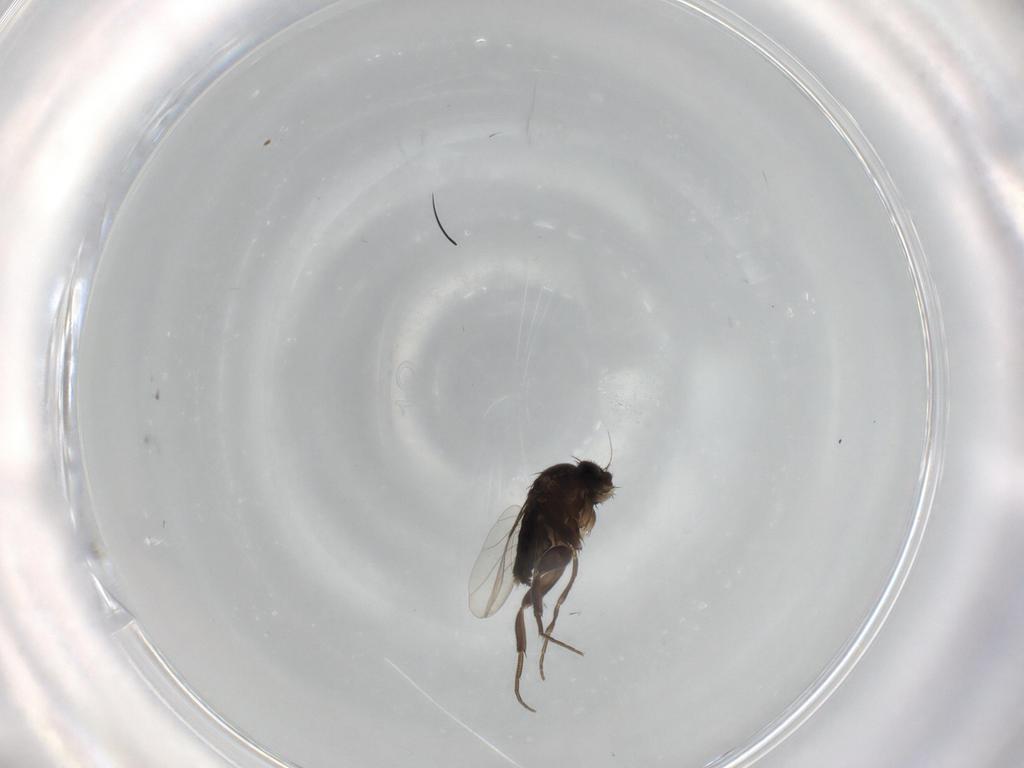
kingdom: Animalia
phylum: Arthropoda
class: Insecta
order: Diptera
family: Phoridae
